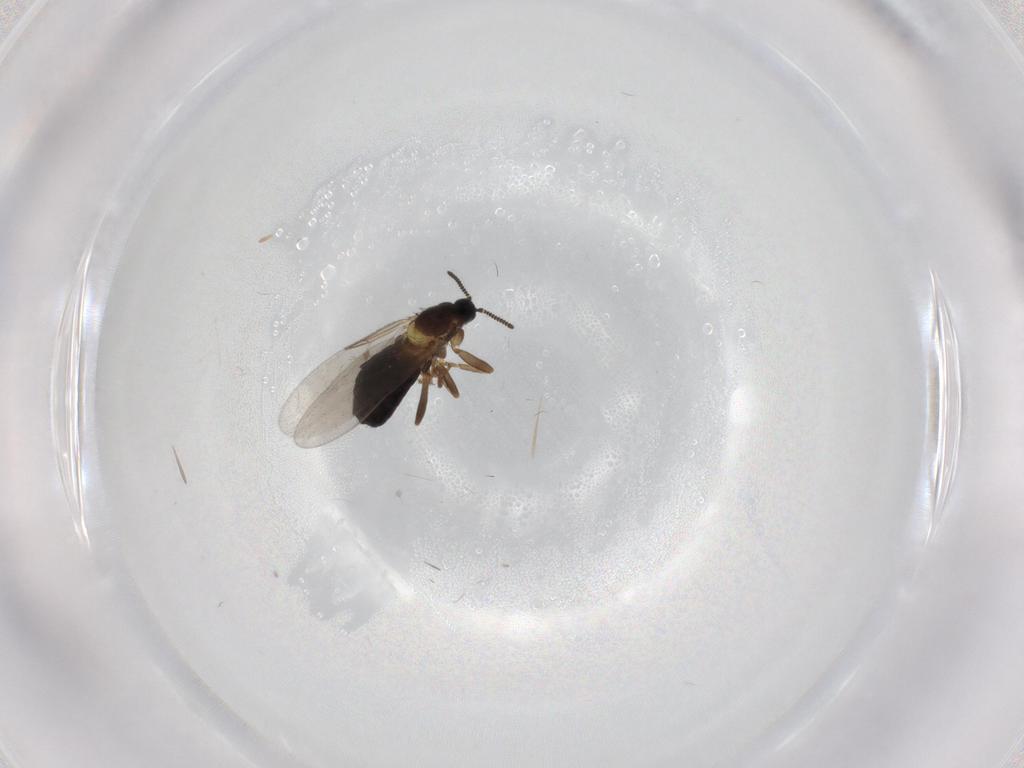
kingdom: Animalia
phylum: Arthropoda
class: Insecta
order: Diptera
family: Scatopsidae
